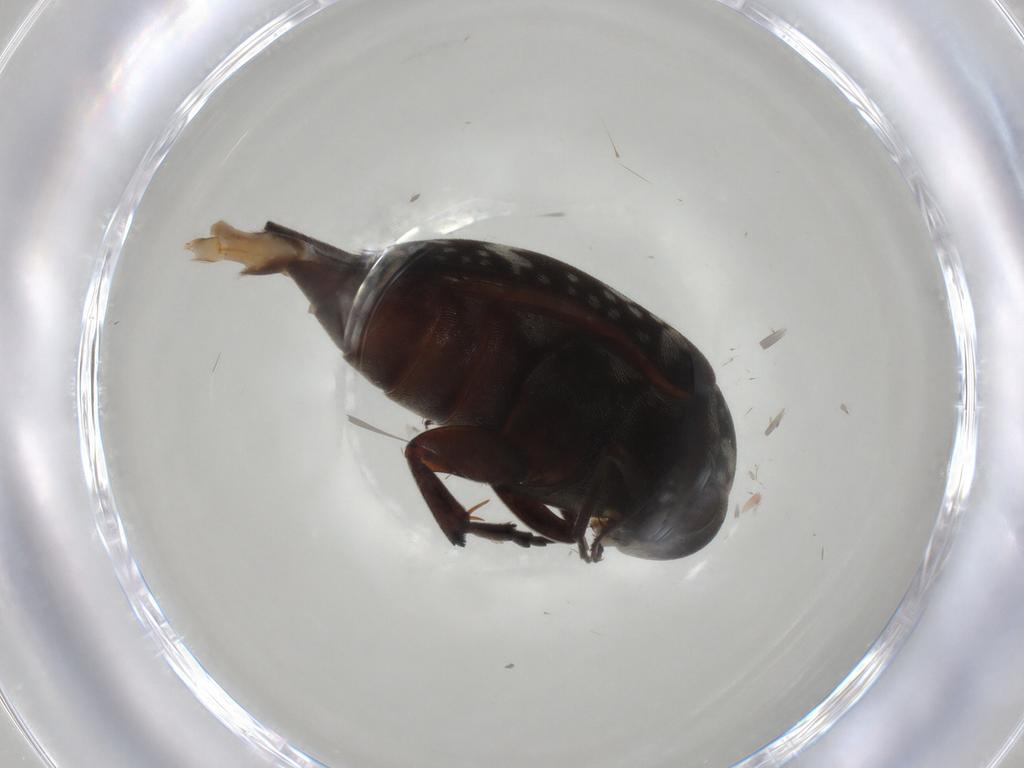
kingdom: Animalia
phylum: Arthropoda
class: Insecta
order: Coleoptera
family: Mordellidae
